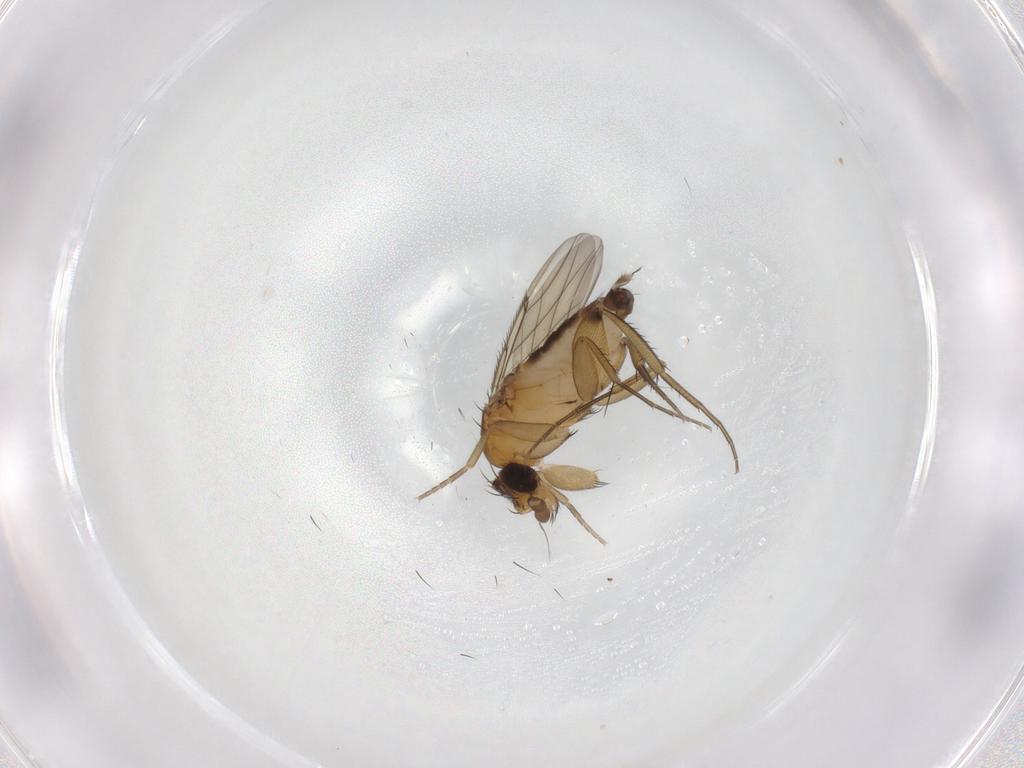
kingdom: Animalia
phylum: Arthropoda
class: Insecta
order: Diptera
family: Phoridae
